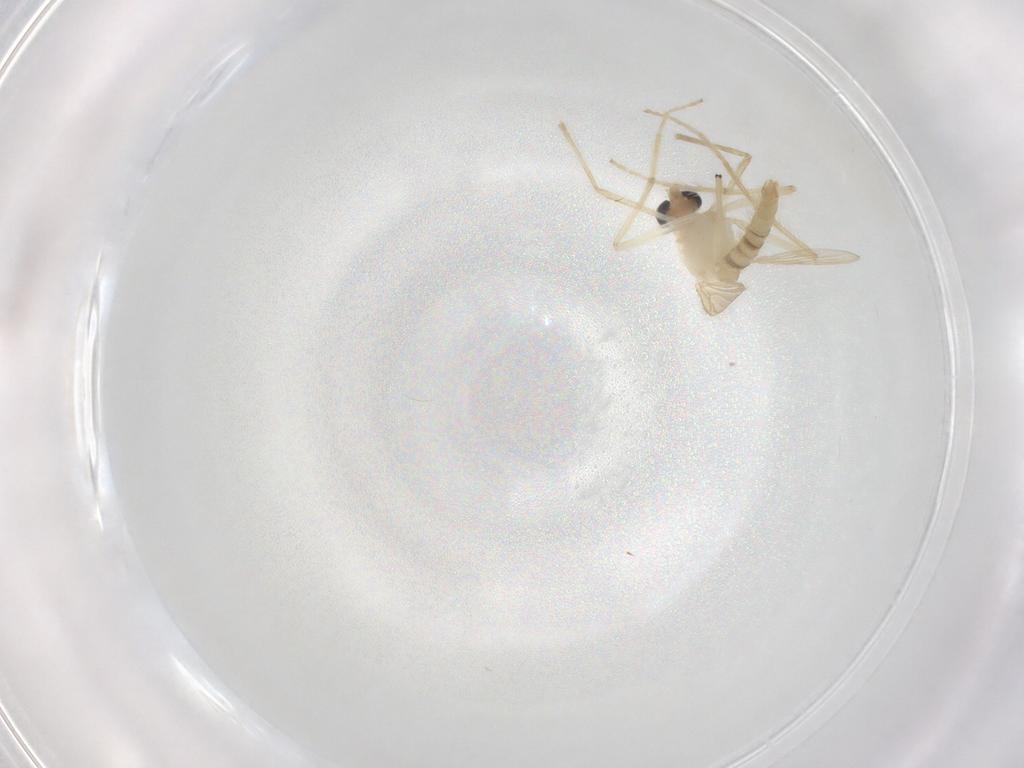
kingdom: Animalia
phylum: Arthropoda
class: Insecta
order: Diptera
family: Chironomidae
